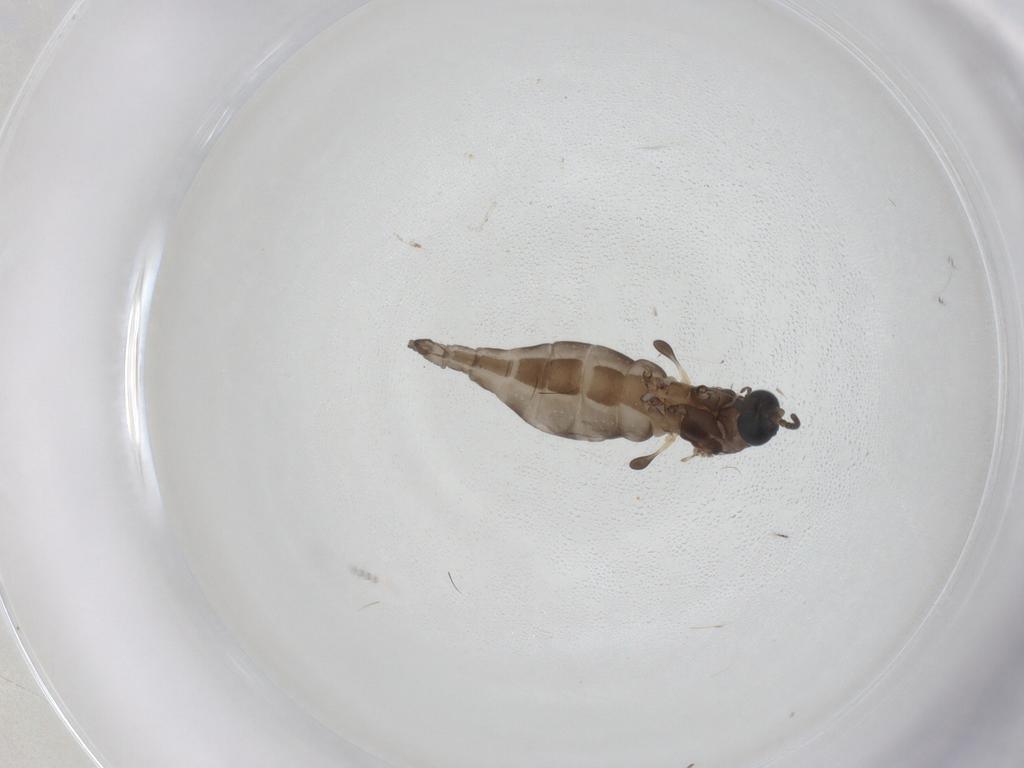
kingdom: Animalia
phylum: Arthropoda
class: Insecta
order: Diptera
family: Sciaridae
